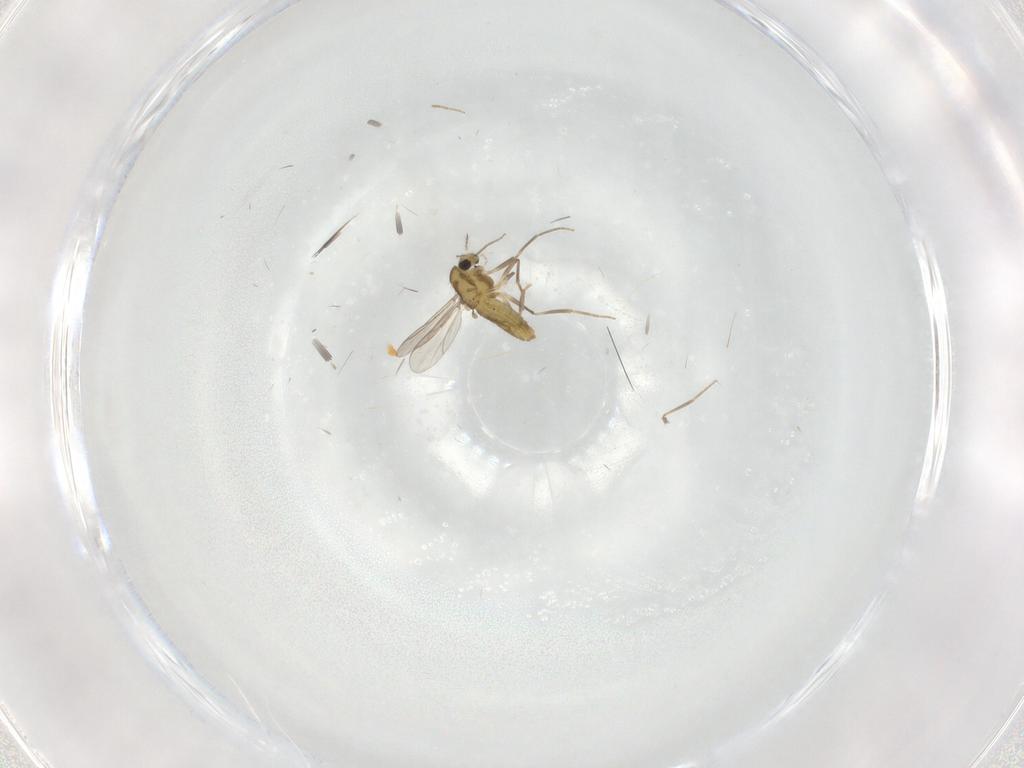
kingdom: Animalia
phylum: Arthropoda
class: Insecta
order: Diptera
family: Chironomidae
